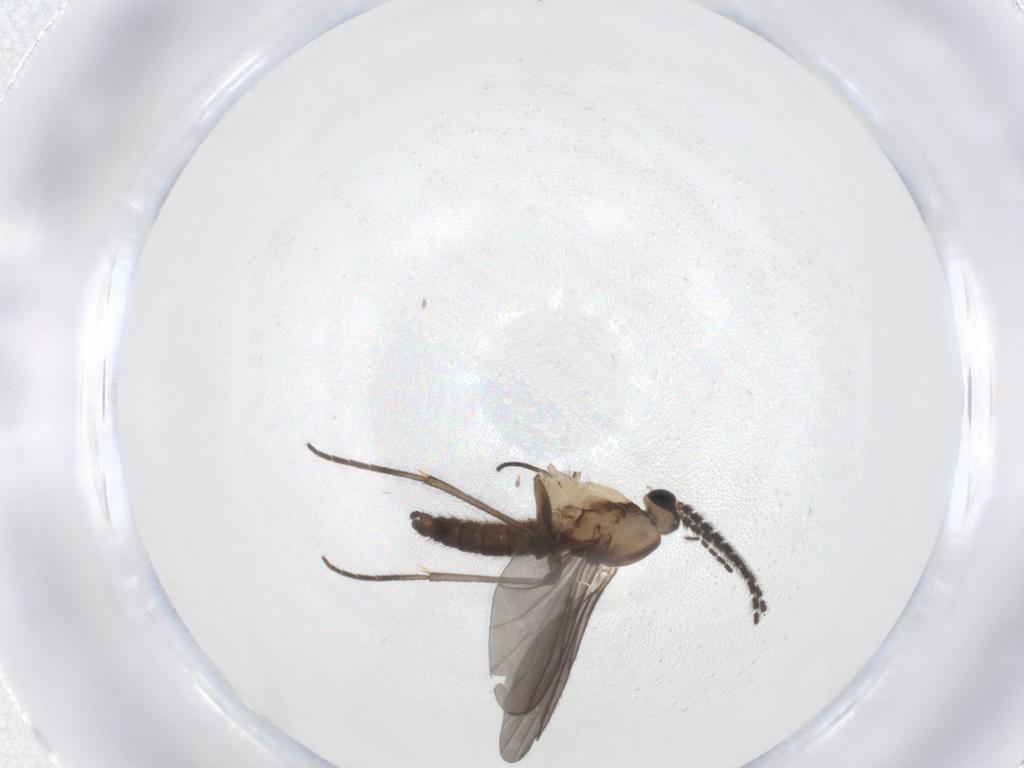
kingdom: Animalia
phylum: Arthropoda
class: Insecta
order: Diptera
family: Sciaridae
